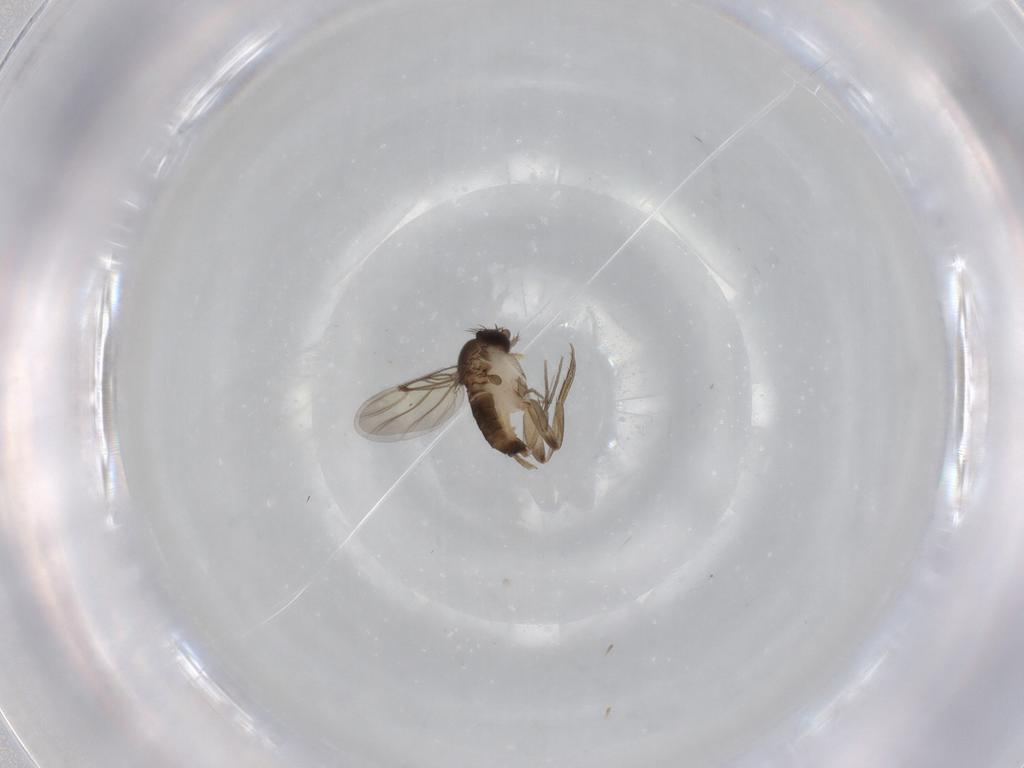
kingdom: Animalia
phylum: Arthropoda
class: Insecta
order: Diptera
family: Phoridae
